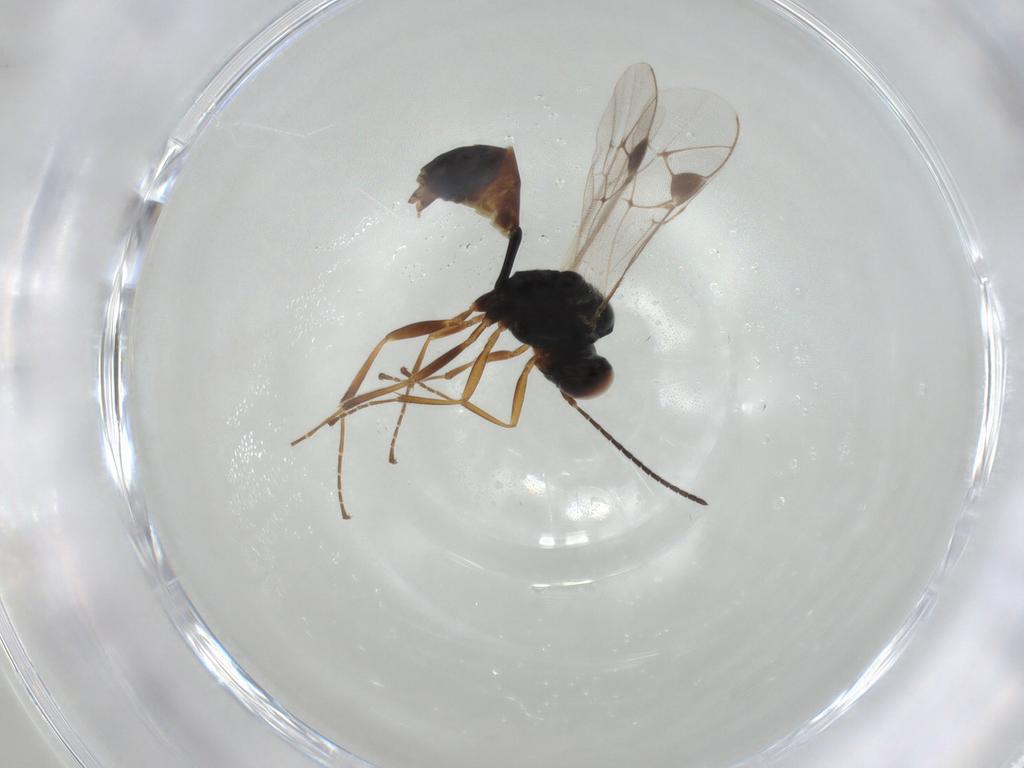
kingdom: Animalia
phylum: Arthropoda
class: Insecta
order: Hymenoptera
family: Ichneumonidae
